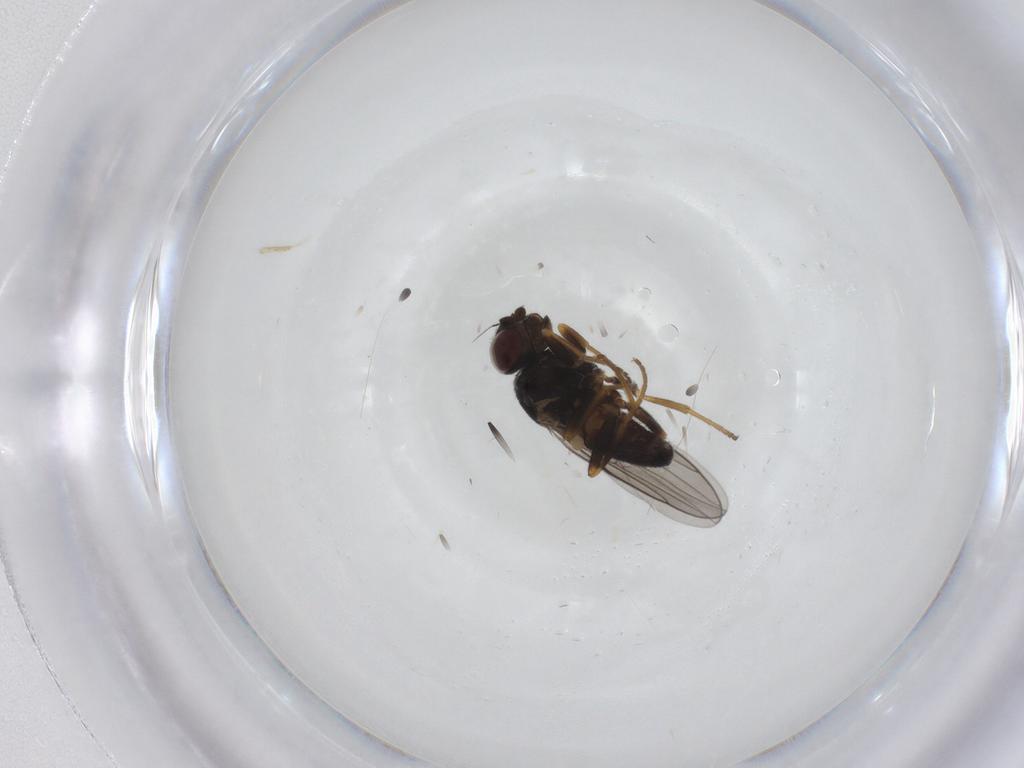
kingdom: Animalia
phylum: Arthropoda
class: Insecta
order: Diptera
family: Chloropidae
